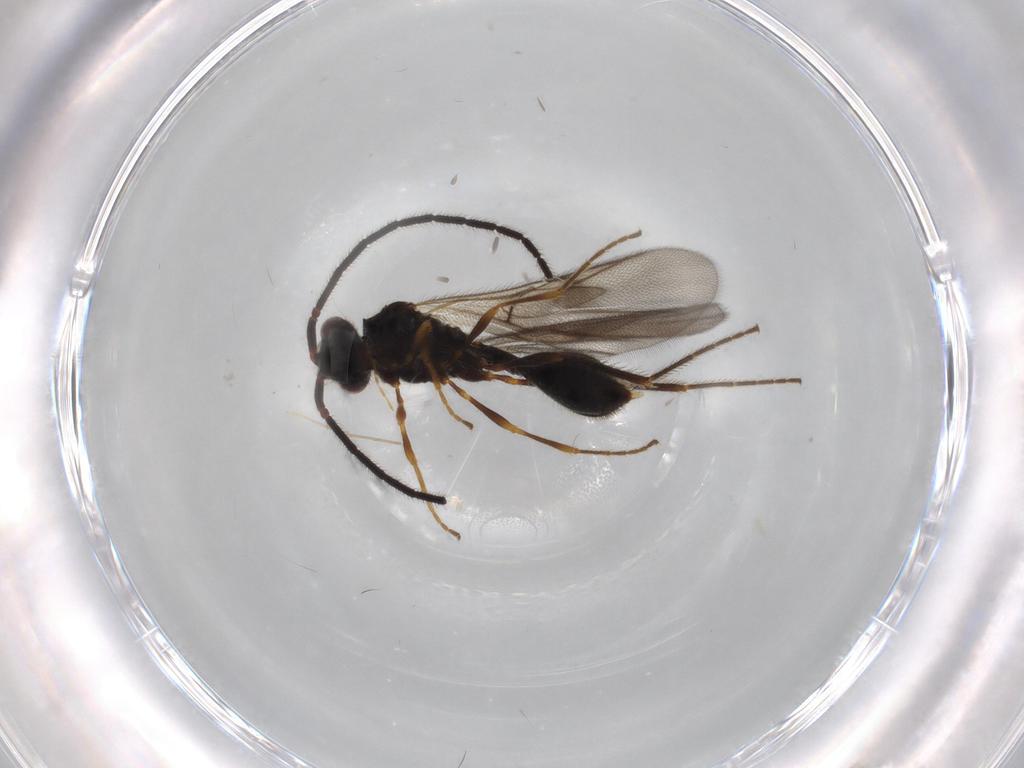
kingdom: Animalia
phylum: Arthropoda
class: Insecta
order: Hymenoptera
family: Diapriidae
